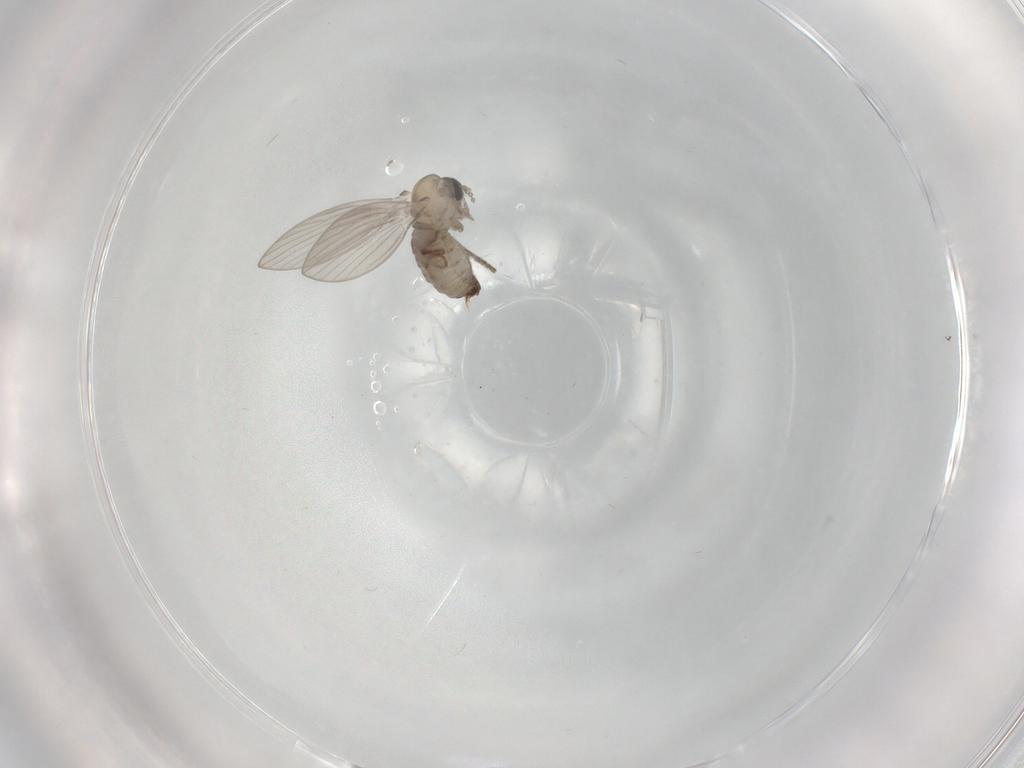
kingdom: Animalia
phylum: Arthropoda
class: Insecta
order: Diptera
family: Psychodidae
